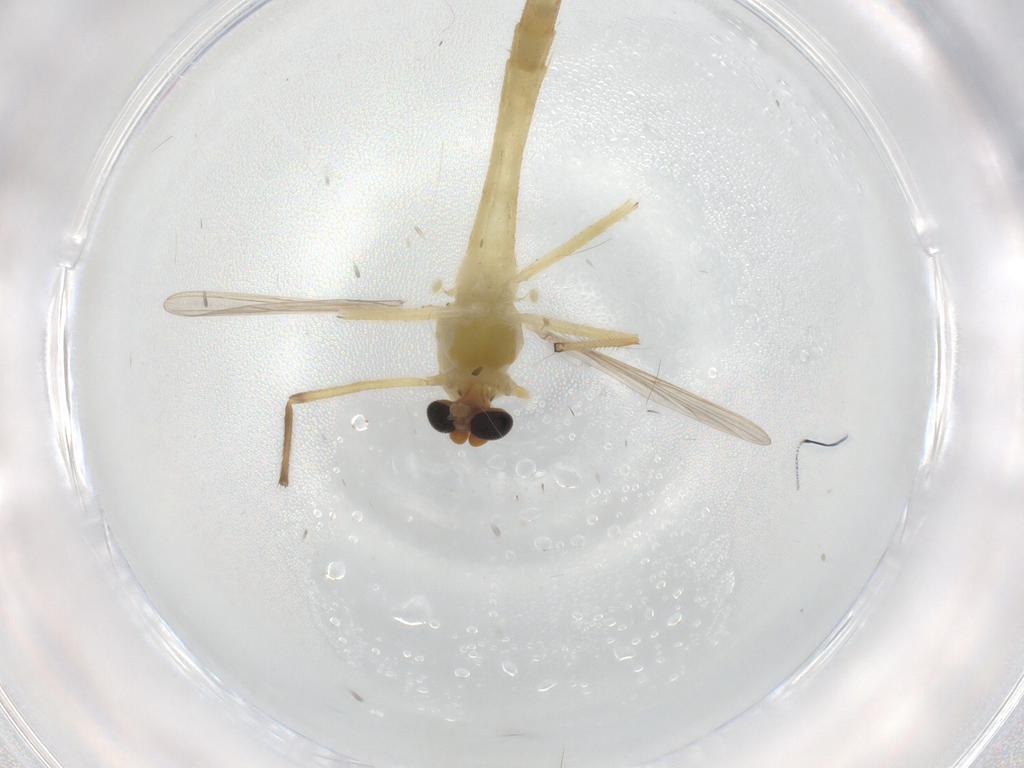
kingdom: Animalia
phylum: Arthropoda
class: Insecta
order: Diptera
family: Chironomidae
